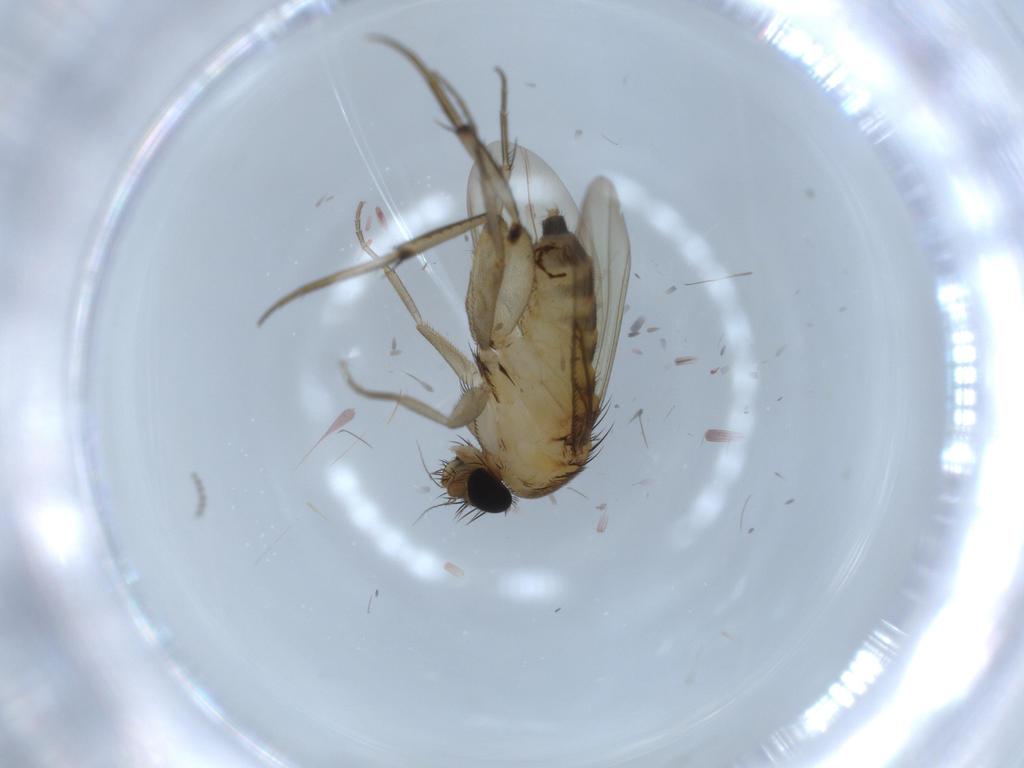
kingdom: Animalia
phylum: Arthropoda
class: Insecta
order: Diptera
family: Phoridae
